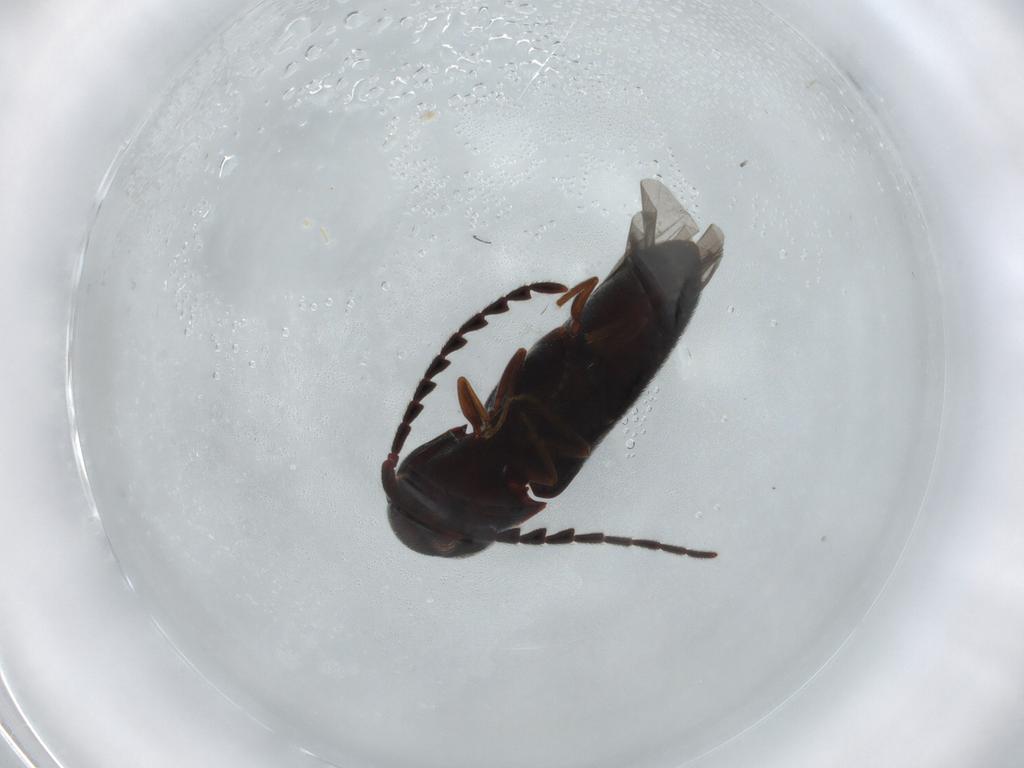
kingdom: Animalia
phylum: Arthropoda
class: Insecta
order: Coleoptera
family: Eucnemidae
